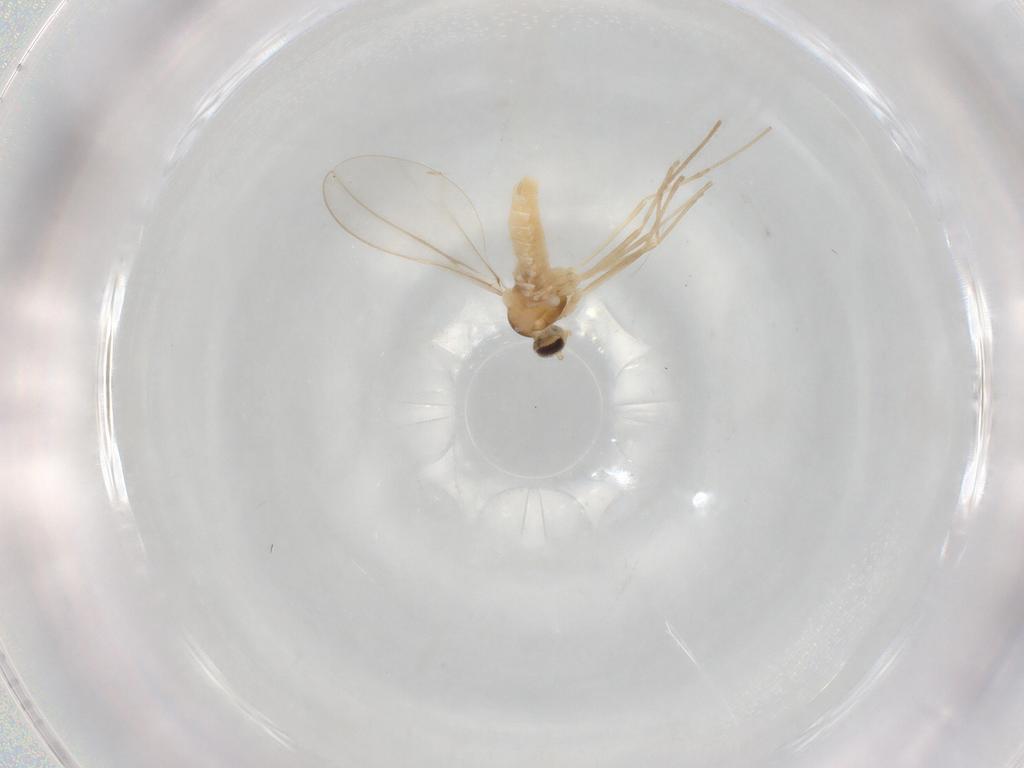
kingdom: Animalia
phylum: Arthropoda
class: Insecta
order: Diptera
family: Cecidomyiidae
